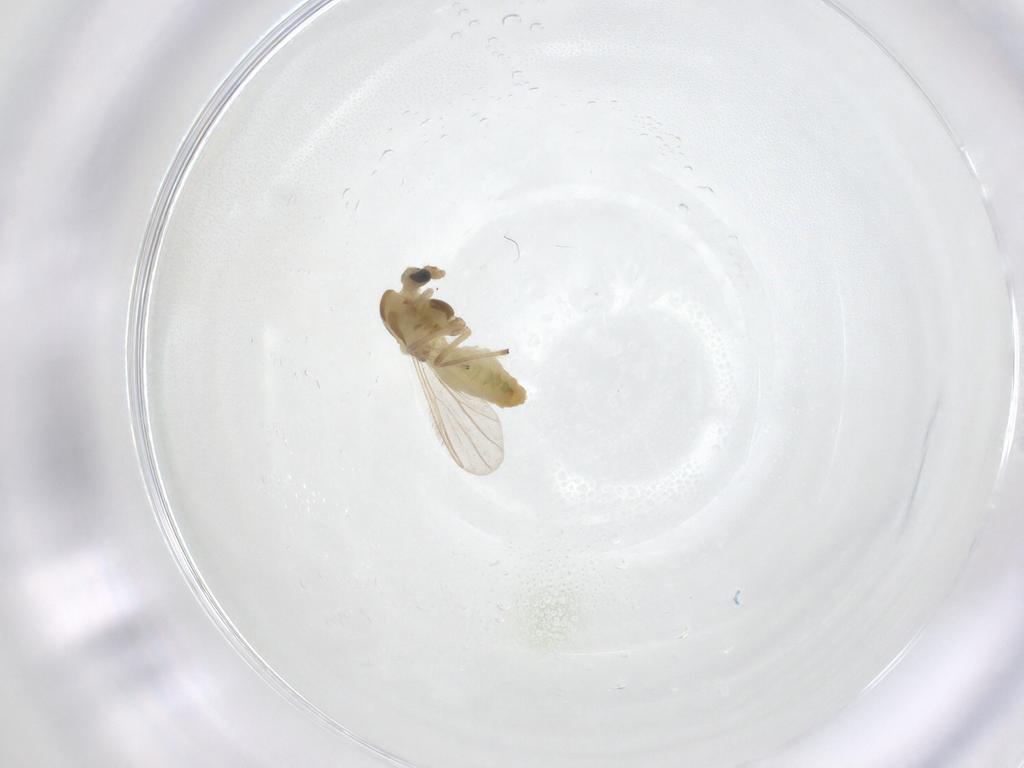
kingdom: Animalia
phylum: Arthropoda
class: Insecta
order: Diptera
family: Chironomidae
